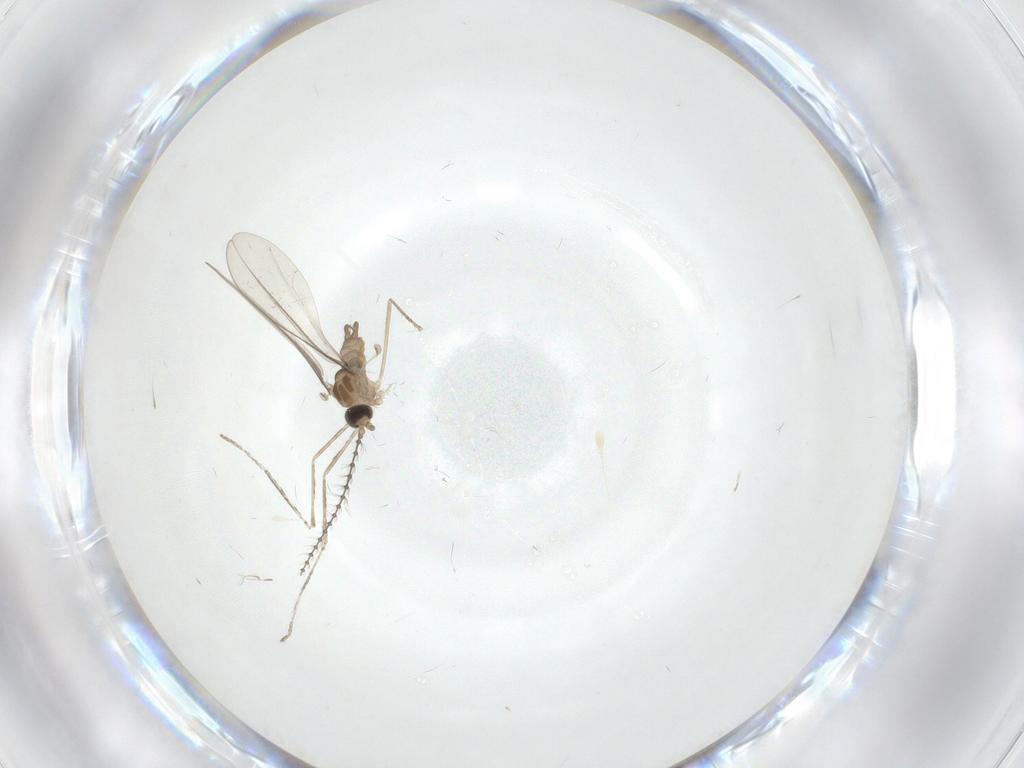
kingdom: Animalia
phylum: Arthropoda
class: Insecta
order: Diptera
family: Cecidomyiidae
